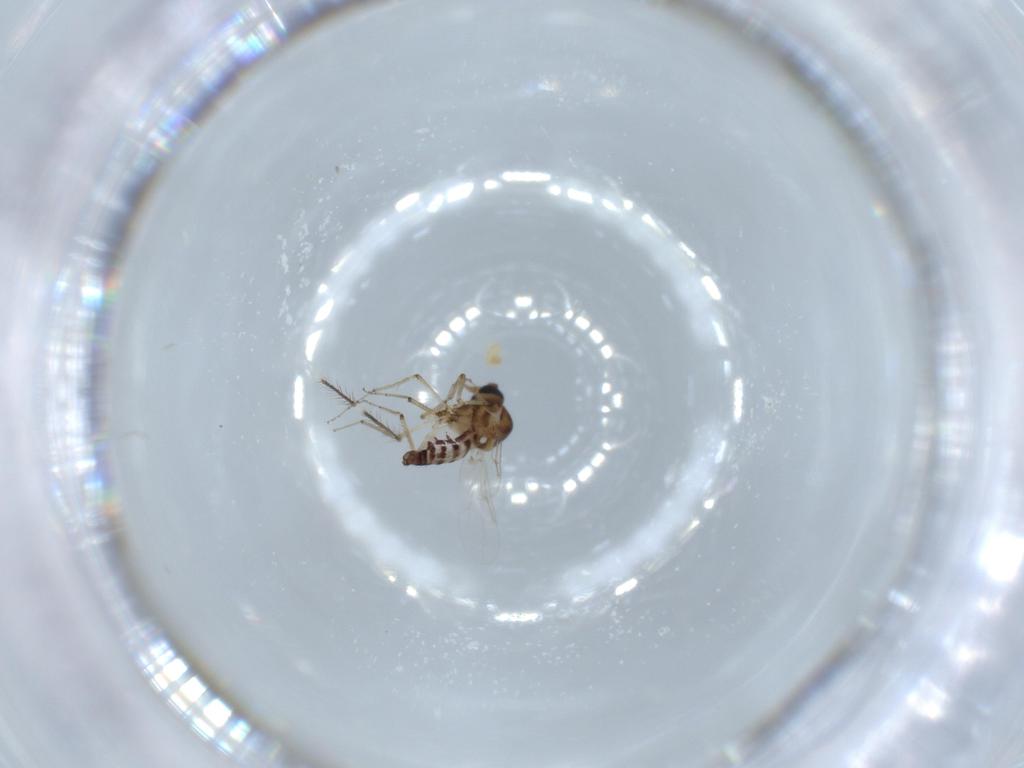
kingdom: Animalia
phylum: Arthropoda
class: Insecta
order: Diptera
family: Ceratopogonidae
